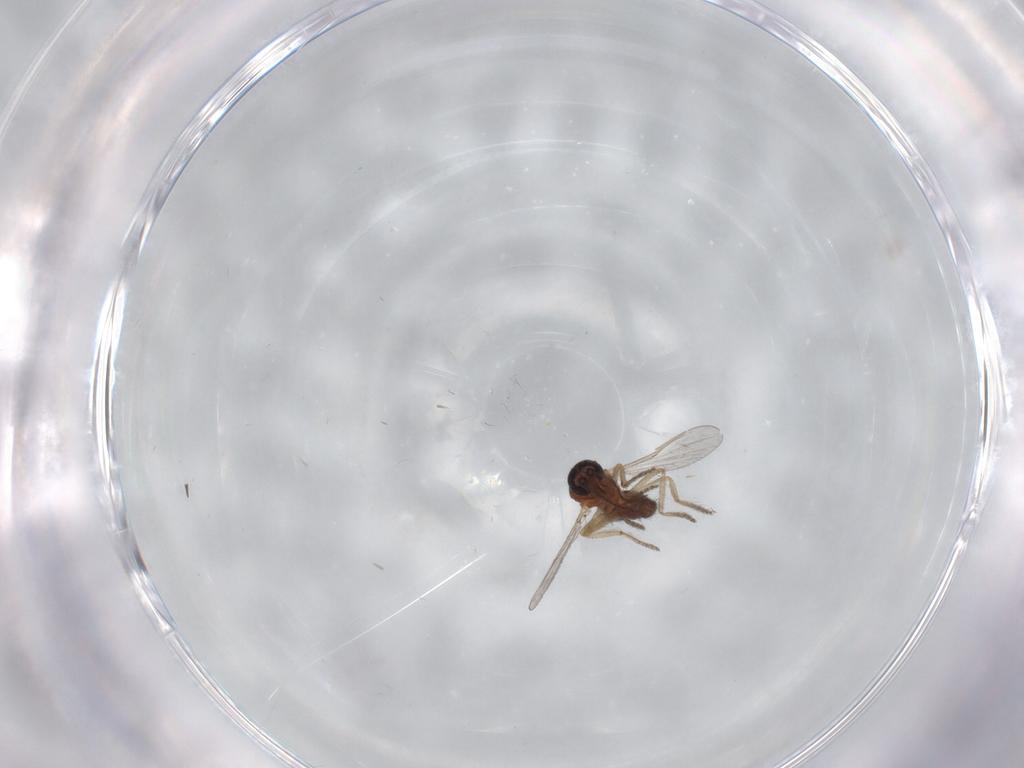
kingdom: Animalia
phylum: Arthropoda
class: Insecta
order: Diptera
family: Ceratopogonidae
